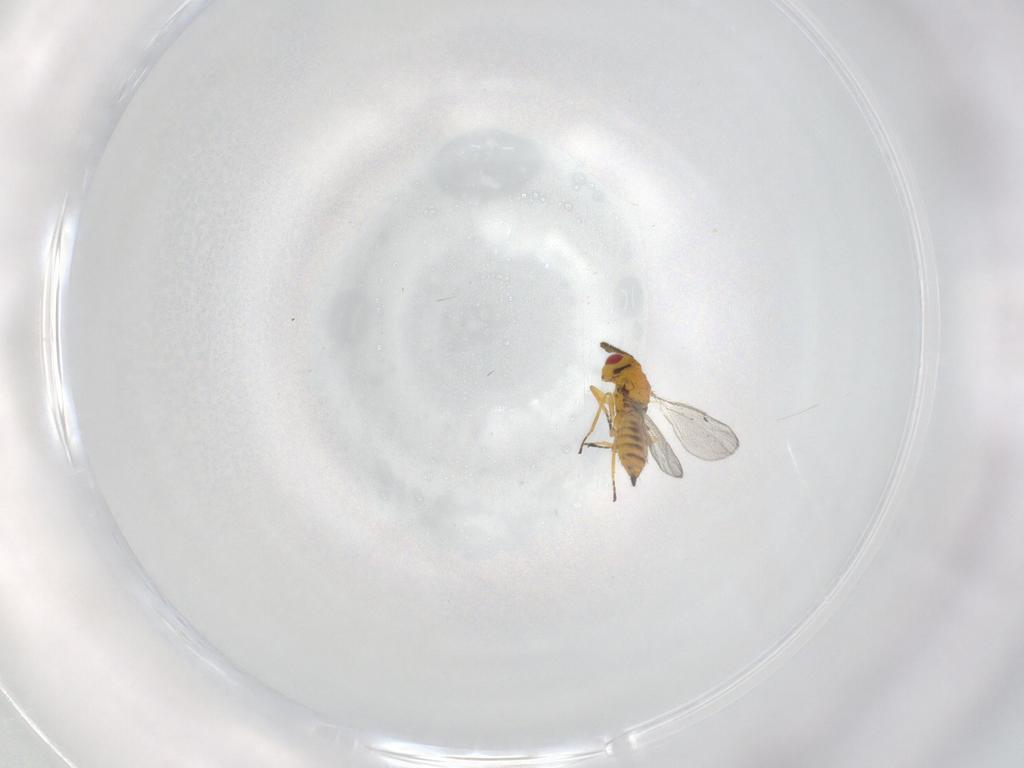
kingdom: Animalia
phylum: Arthropoda
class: Insecta
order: Hymenoptera
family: Eulophidae
